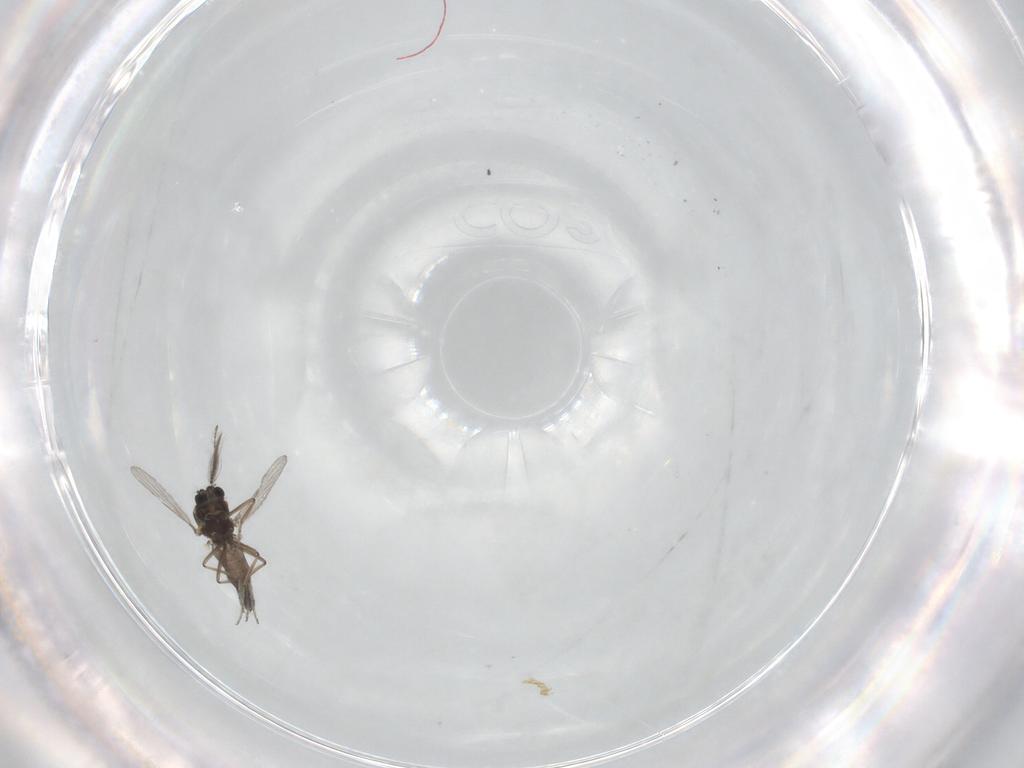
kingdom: Animalia
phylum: Arthropoda
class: Insecta
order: Diptera
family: Ceratopogonidae
